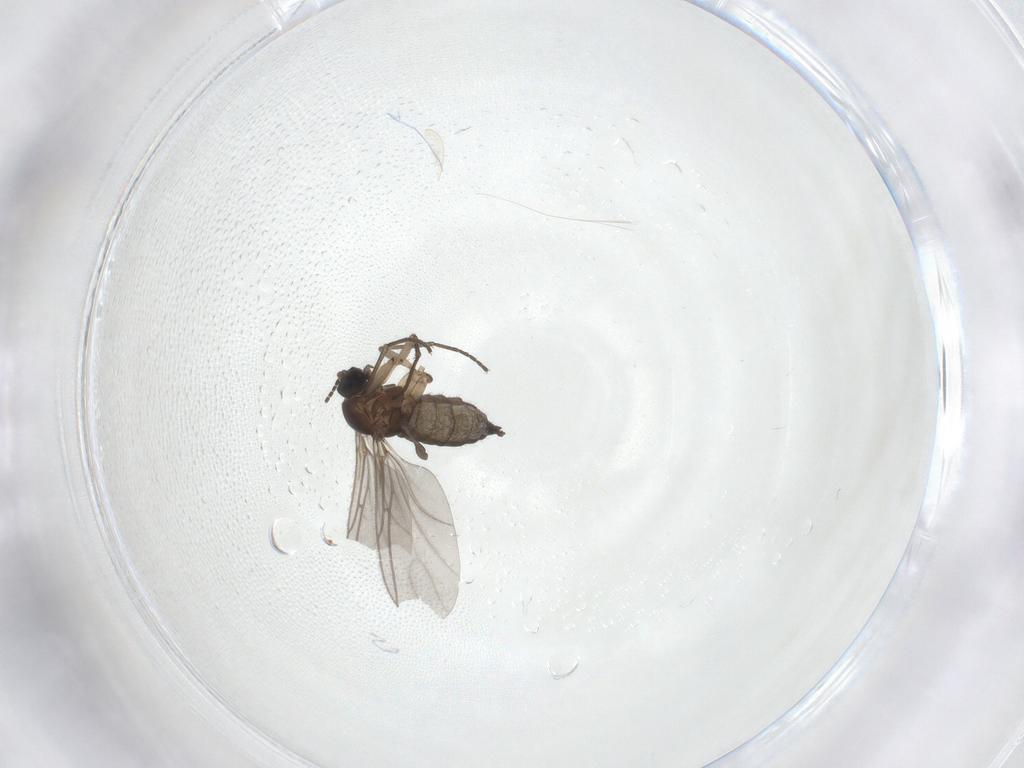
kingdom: Animalia
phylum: Arthropoda
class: Insecta
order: Diptera
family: Sciaridae
